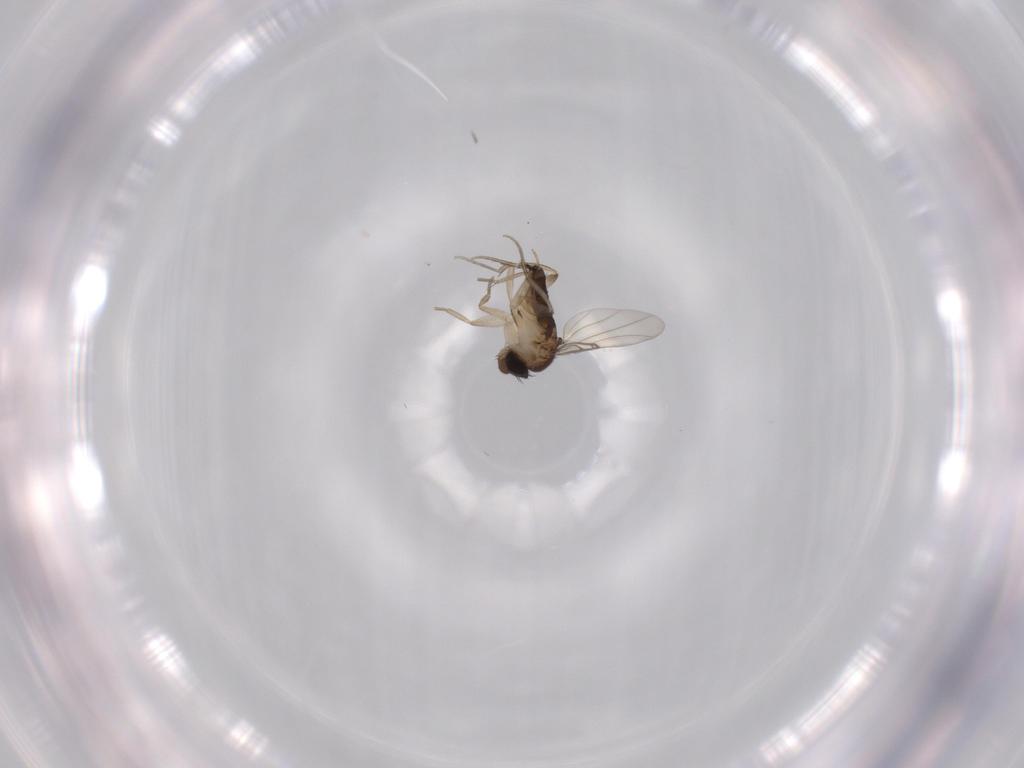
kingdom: Animalia
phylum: Arthropoda
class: Insecta
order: Diptera
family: Phoridae
